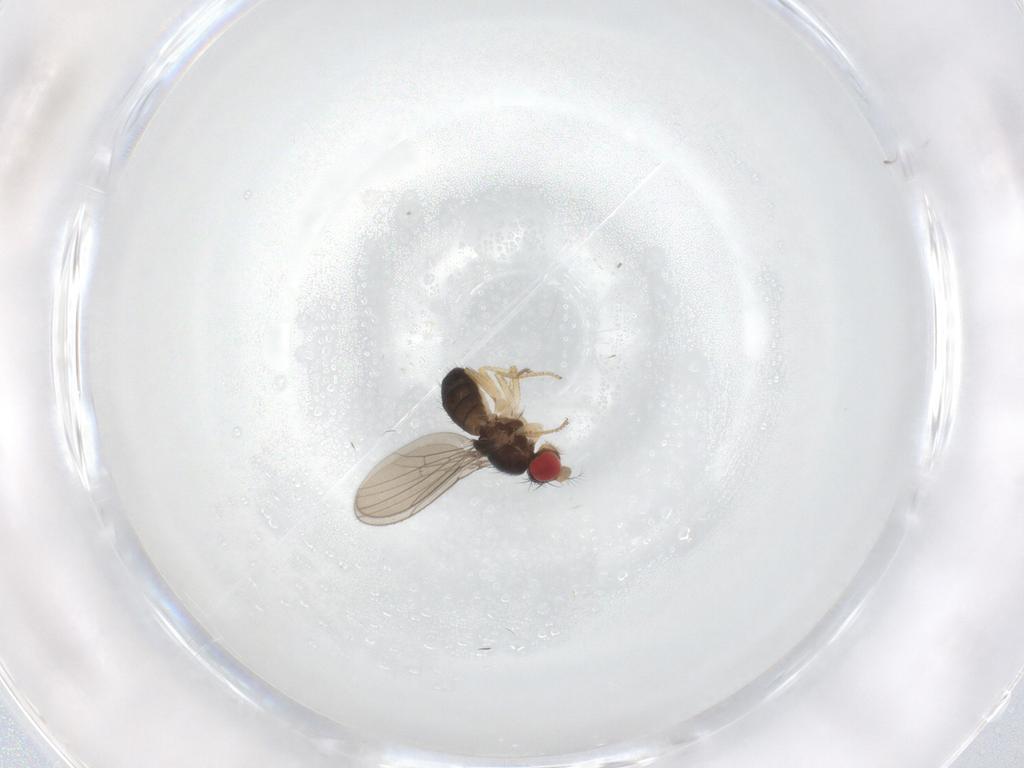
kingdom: Animalia
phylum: Arthropoda
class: Insecta
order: Diptera
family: Drosophilidae
